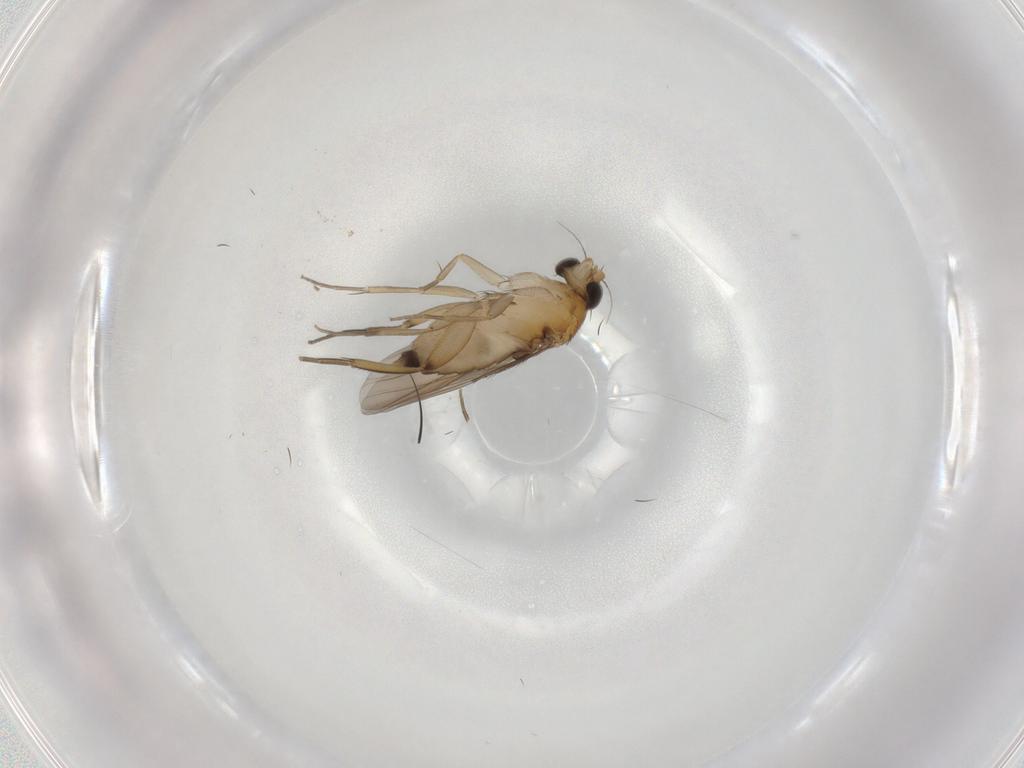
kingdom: Animalia
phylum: Arthropoda
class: Insecta
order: Diptera
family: Phoridae
